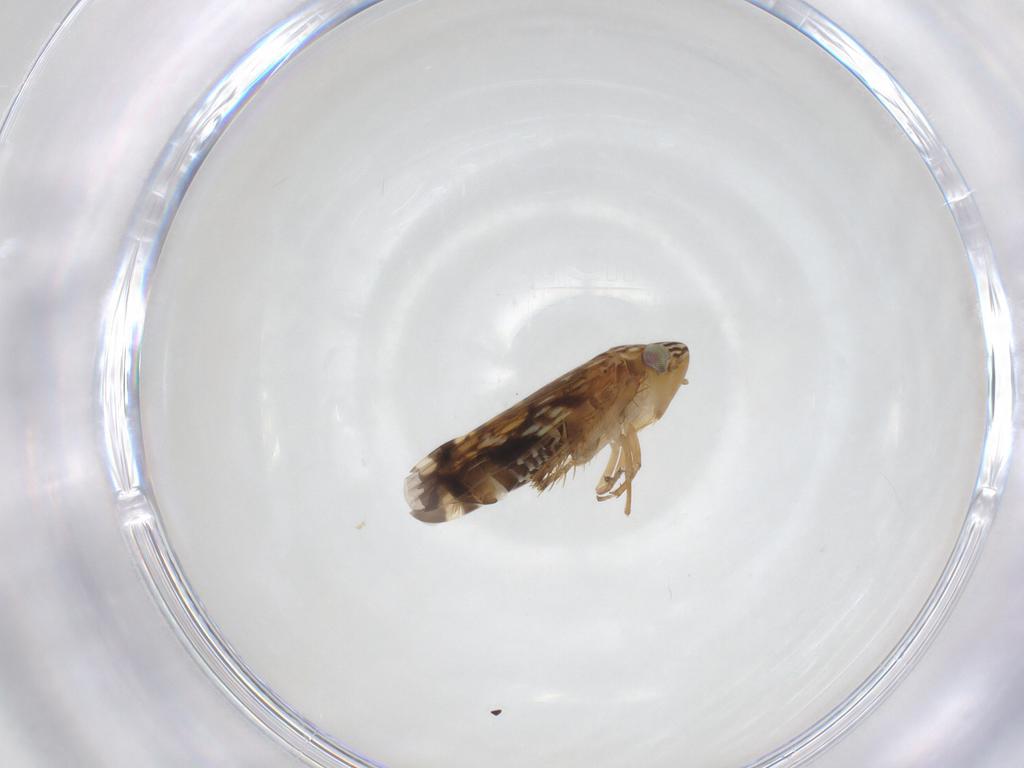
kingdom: Animalia
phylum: Arthropoda
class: Insecta
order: Hemiptera
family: Cicadellidae
